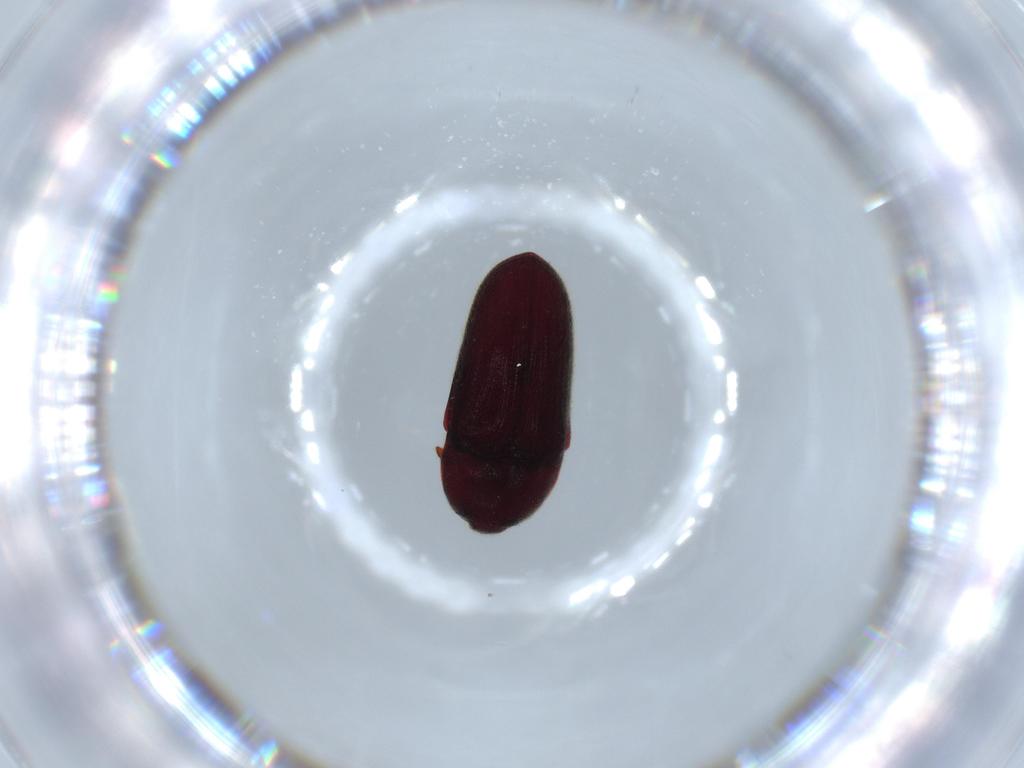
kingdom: Animalia
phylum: Arthropoda
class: Insecta
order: Coleoptera
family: Throscidae
